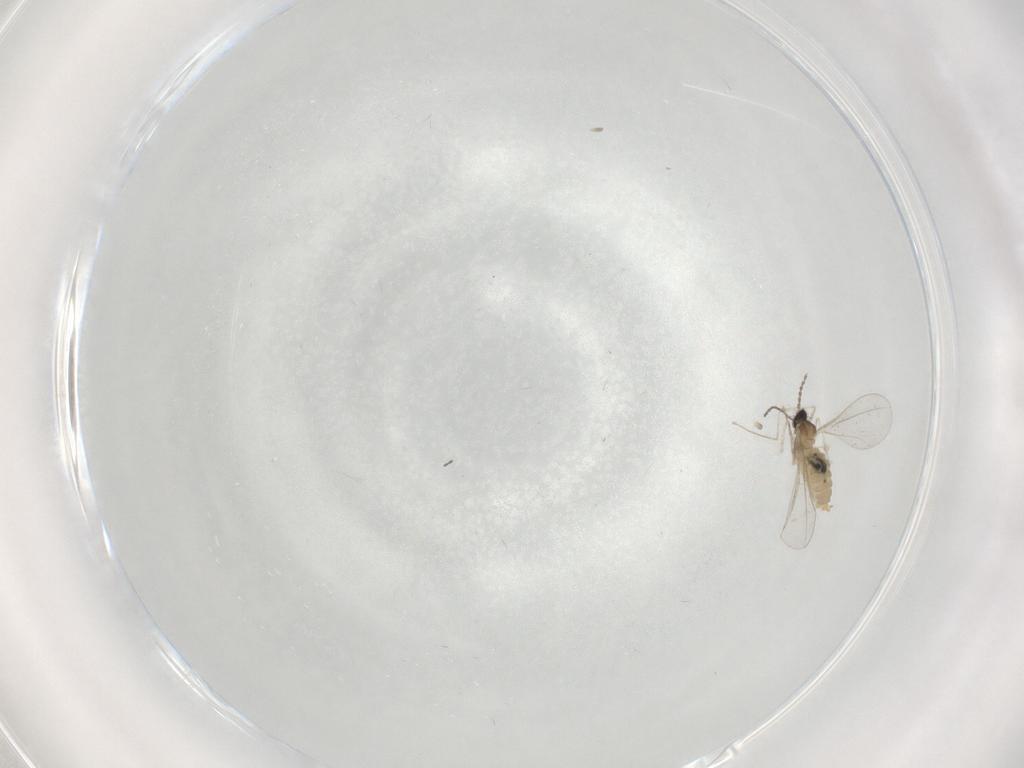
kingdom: Animalia
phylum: Arthropoda
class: Insecta
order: Diptera
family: Cecidomyiidae
